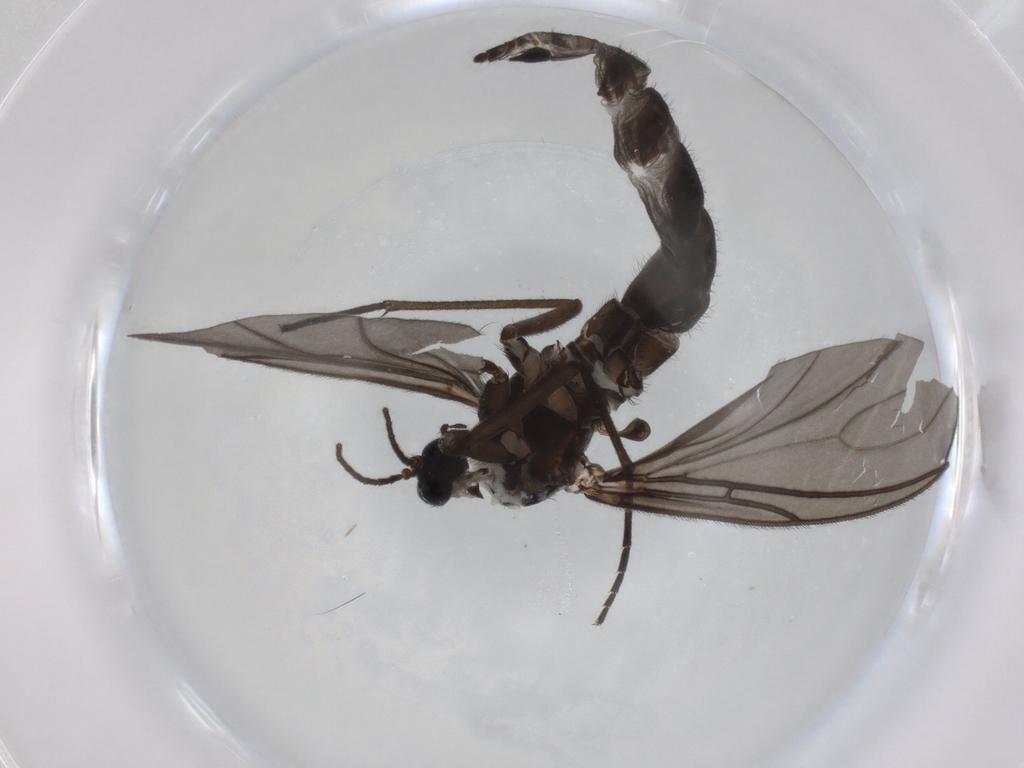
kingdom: Animalia
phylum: Arthropoda
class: Insecta
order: Diptera
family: Sciaridae
